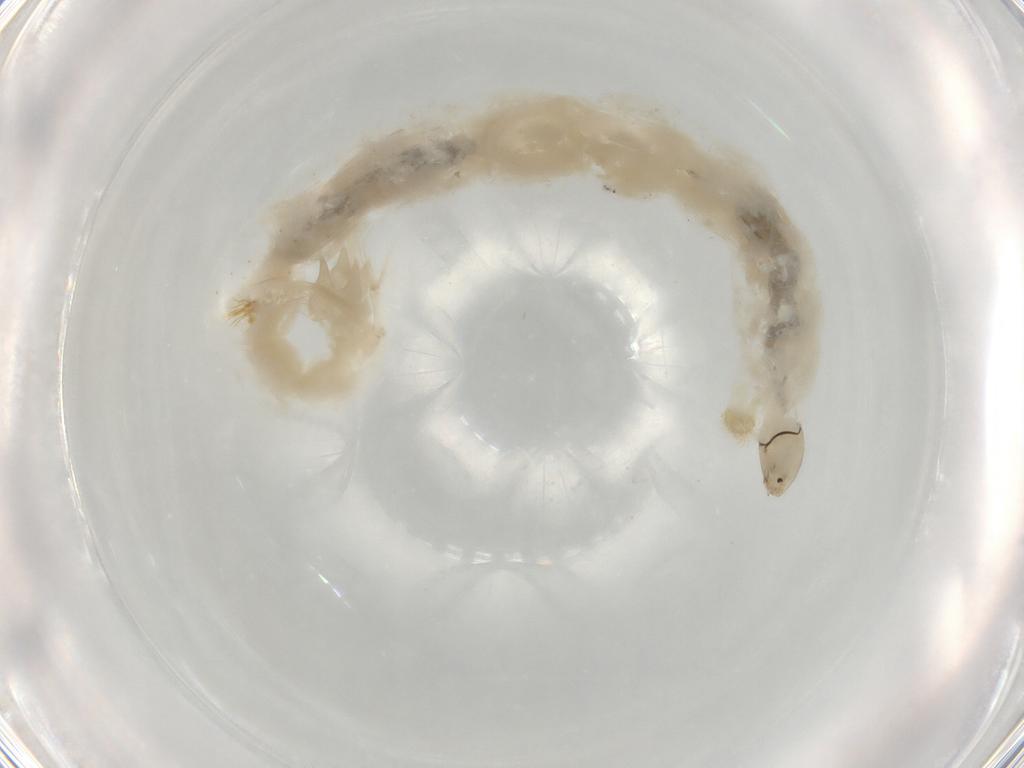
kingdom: Animalia
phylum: Arthropoda
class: Insecta
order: Diptera
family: Chironomidae
